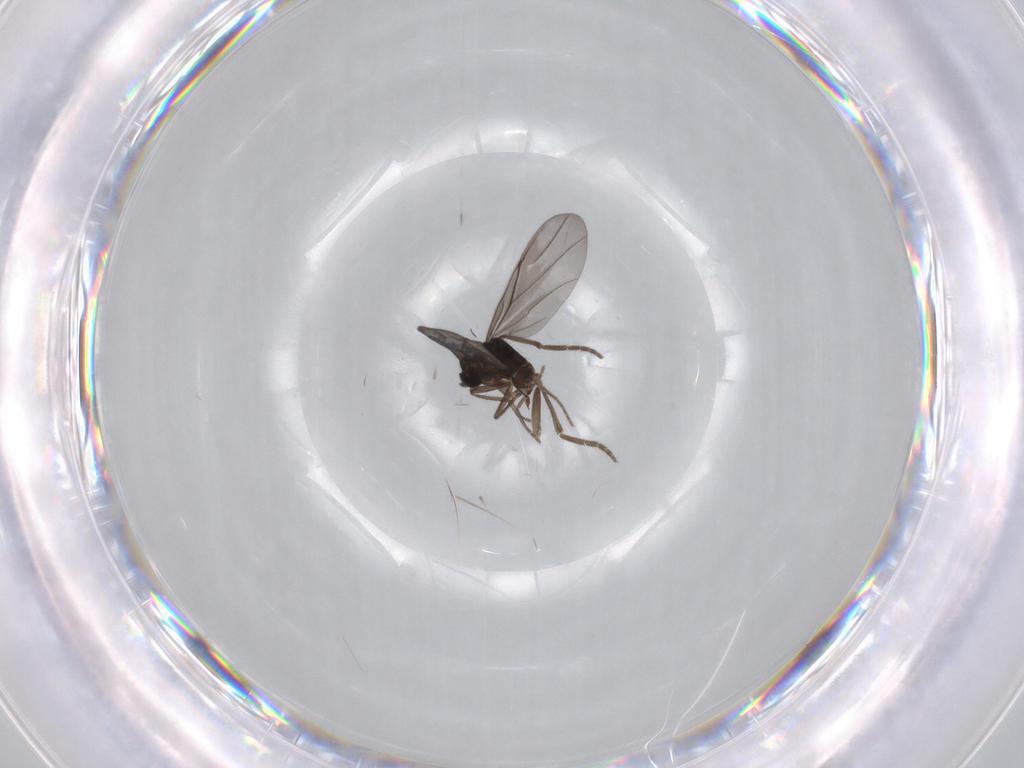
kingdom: Animalia
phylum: Arthropoda
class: Insecta
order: Diptera
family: Phoridae
